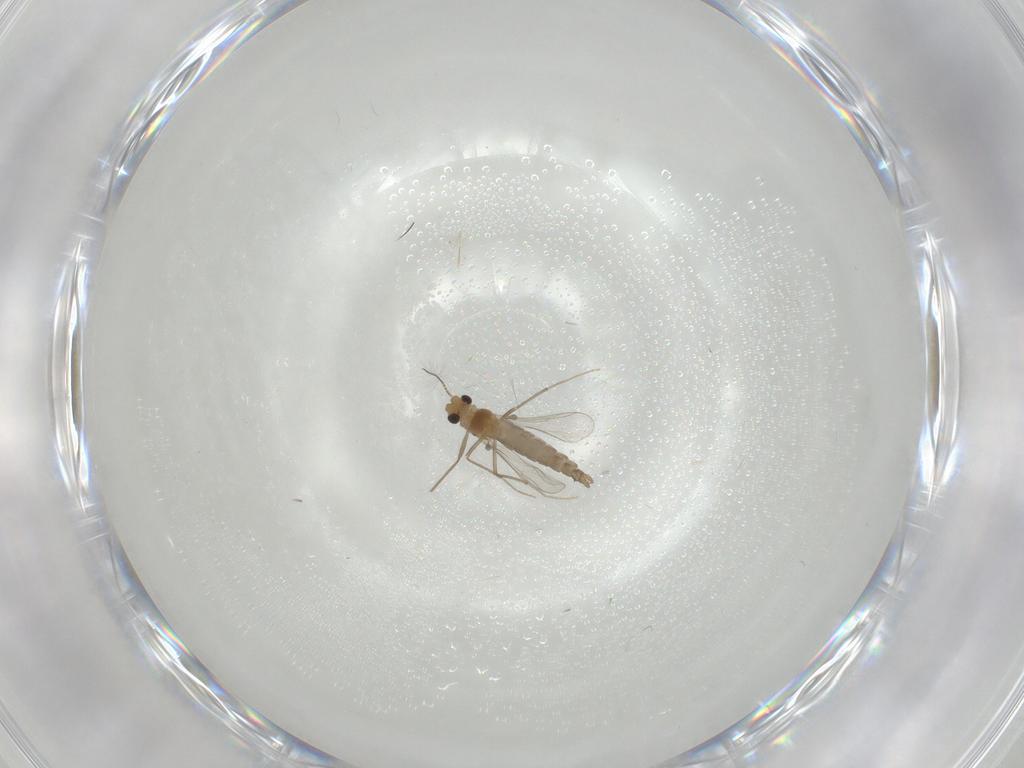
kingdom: Animalia
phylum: Arthropoda
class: Insecta
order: Diptera
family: Chironomidae
